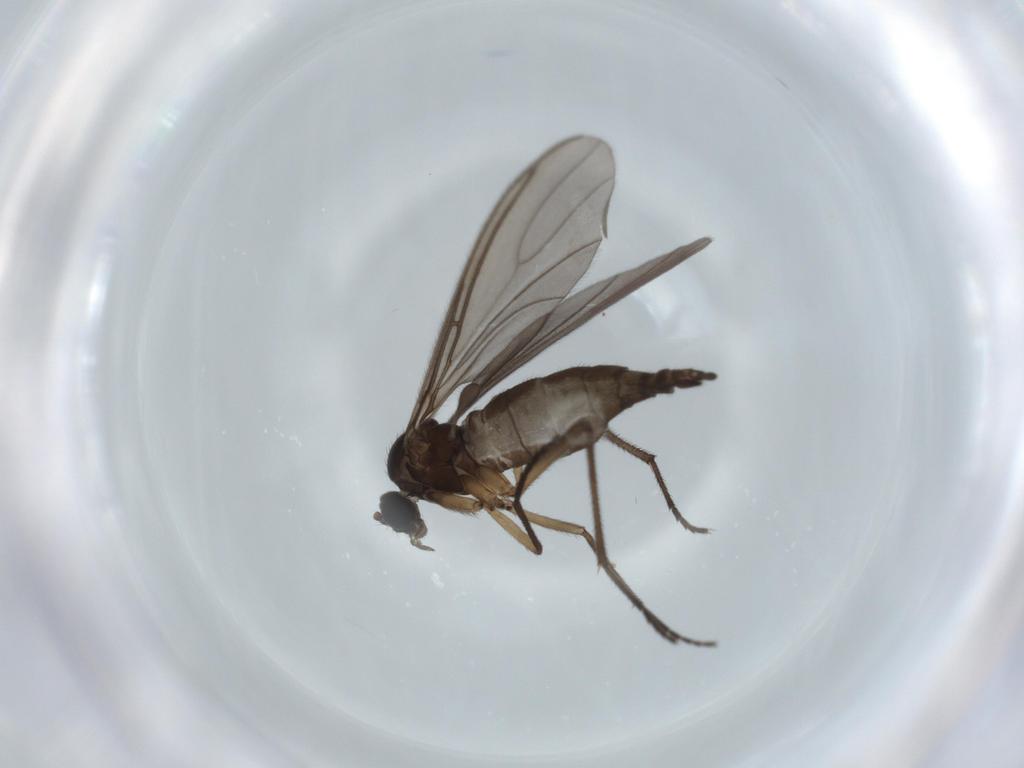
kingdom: Animalia
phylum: Arthropoda
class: Insecta
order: Diptera
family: Sciaridae
